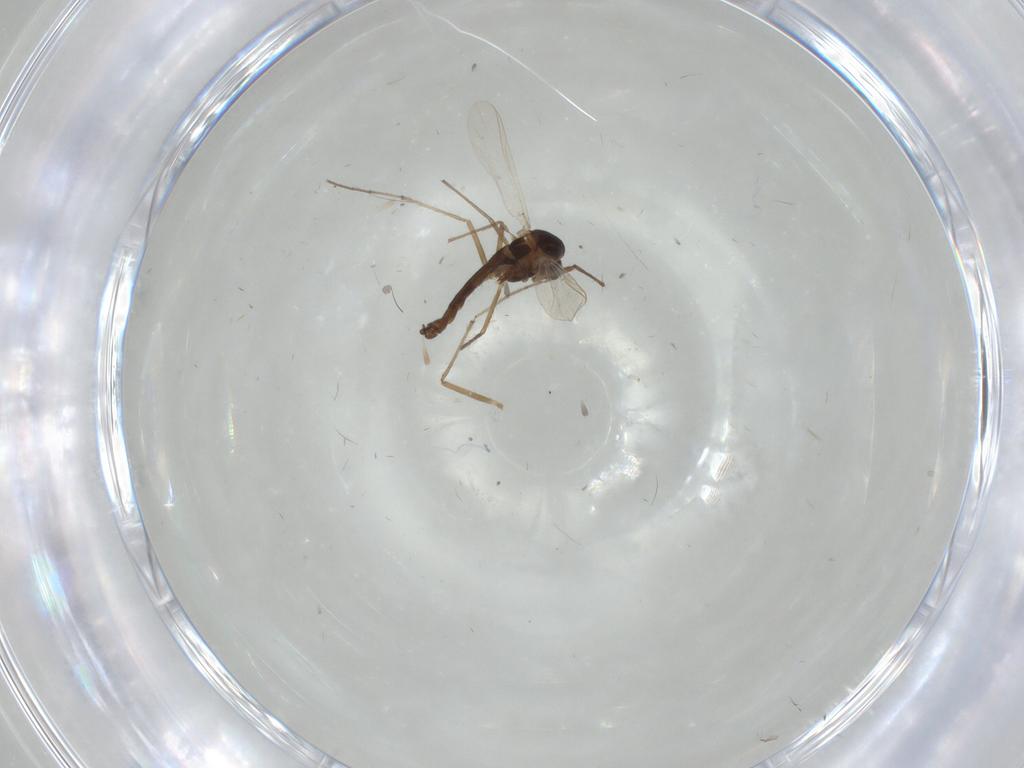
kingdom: Animalia
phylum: Arthropoda
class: Insecta
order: Diptera
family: Chironomidae
